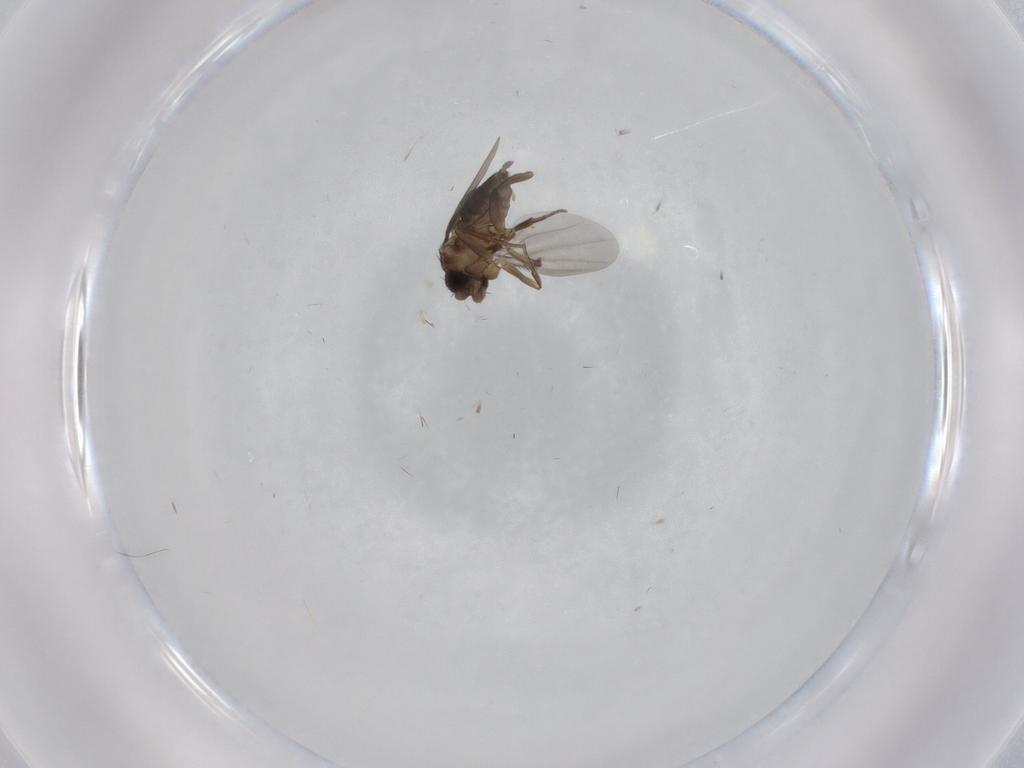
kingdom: Animalia
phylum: Arthropoda
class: Insecta
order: Diptera
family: Phoridae
